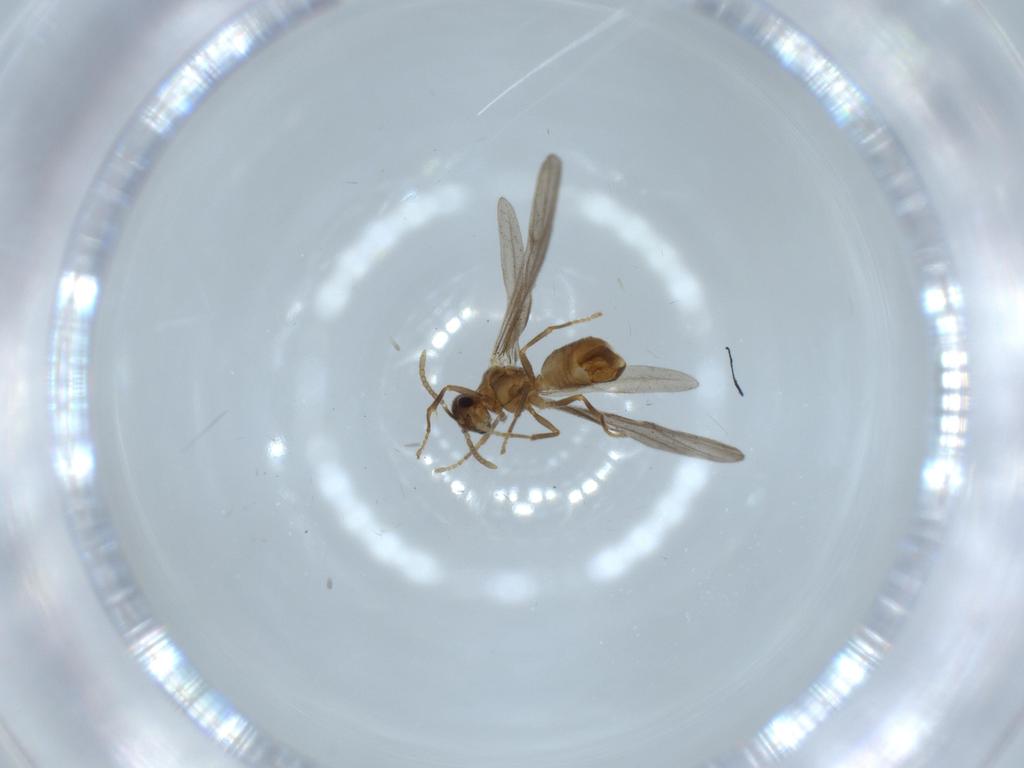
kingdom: Animalia
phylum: Arthropoda
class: Insecta
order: Hymenoptera
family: Formicidae
